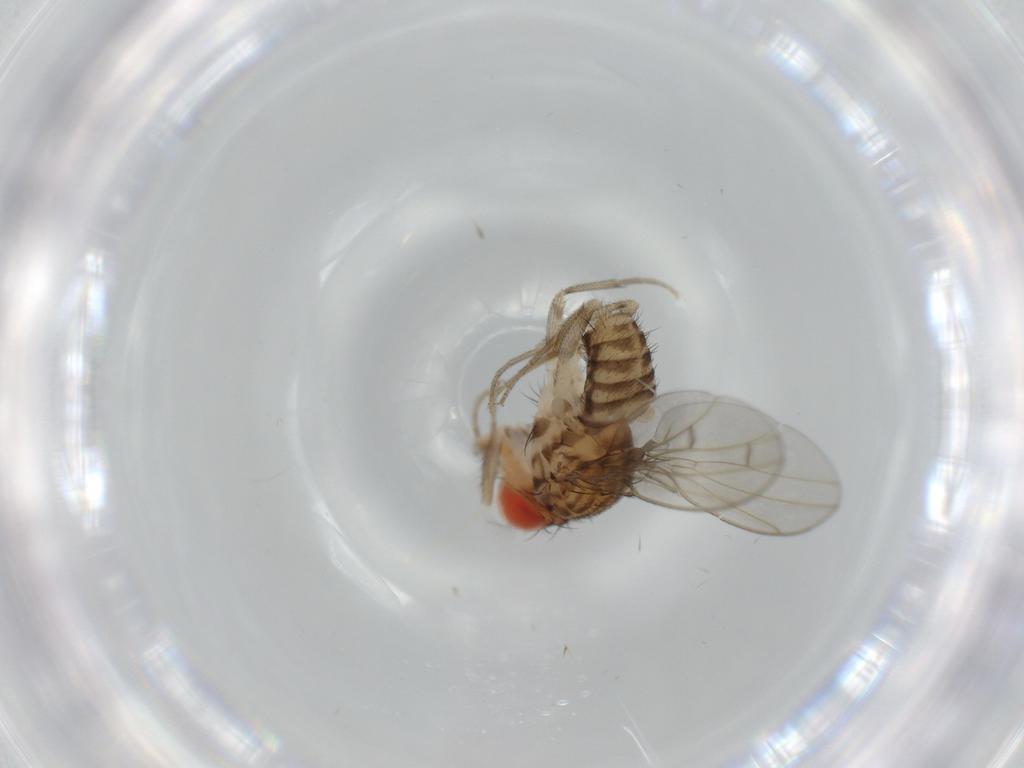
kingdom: Animalia
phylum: Arthropoda
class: Insecta
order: Diptera
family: Drosophilidae
